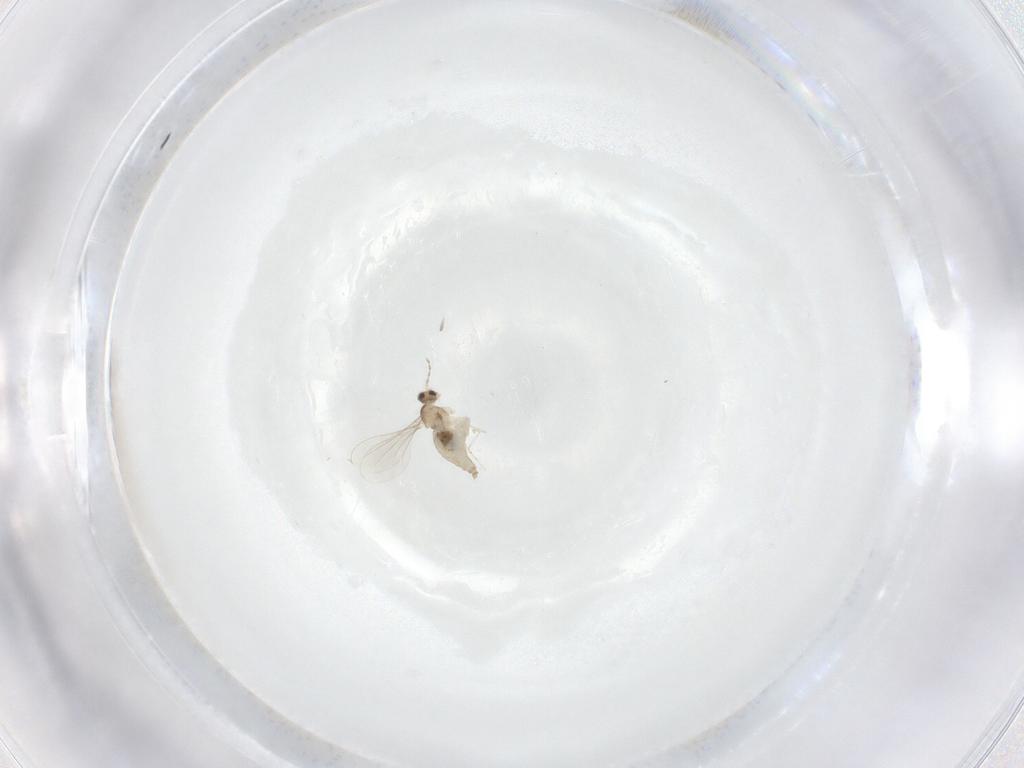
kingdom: Animalia
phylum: Arthropoda
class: Insecta
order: Diptera
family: Cecidomyiidae
